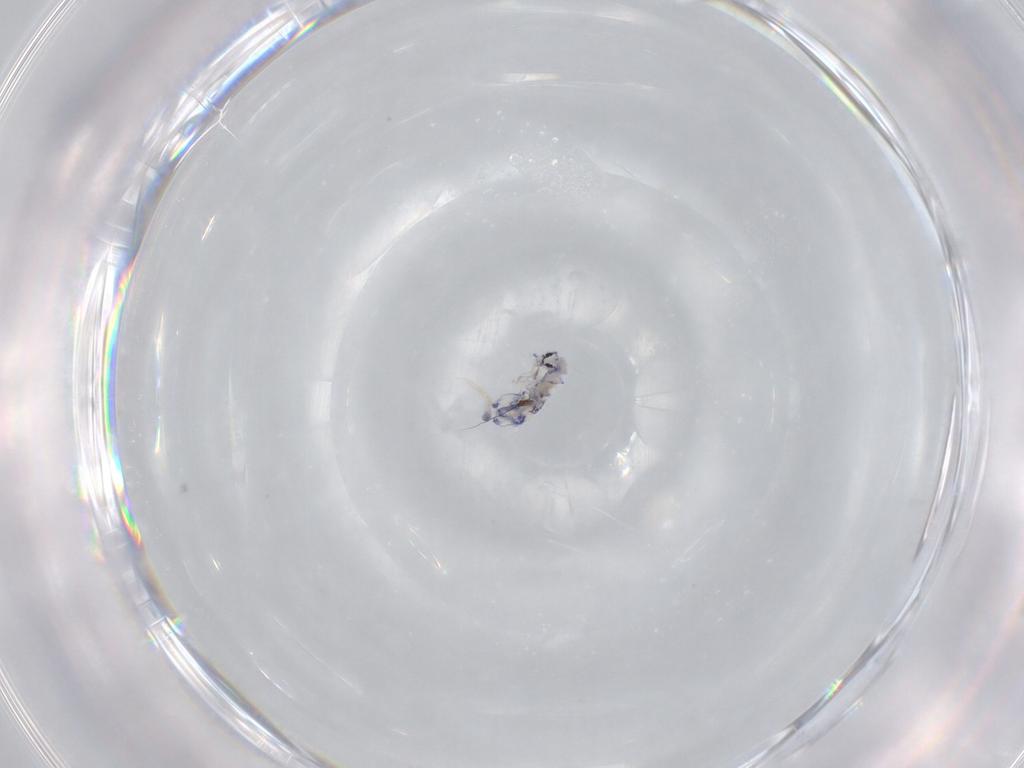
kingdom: Animalia
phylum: Arthropoda
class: Collembola
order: Entomobryomorpha
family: Entomobryidae
